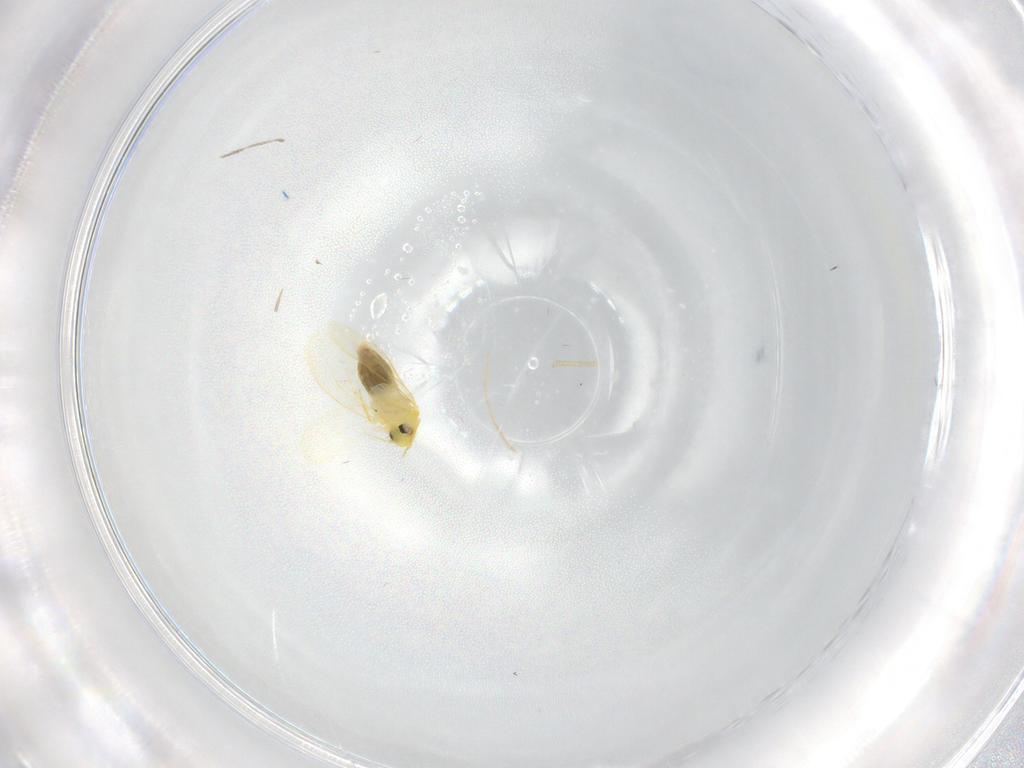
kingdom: Animalia
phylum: Arthropoda
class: Insecta
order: Hemiptera
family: Aleyrodidae
